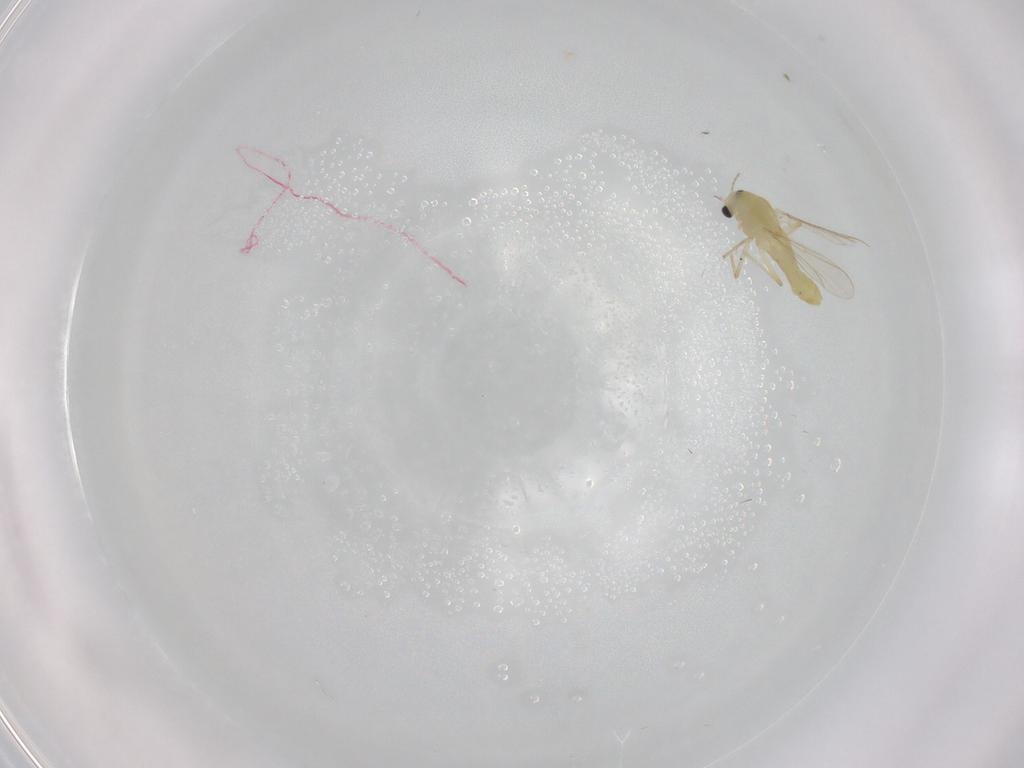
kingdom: Animalia
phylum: Arthropoda
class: Insecta
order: Diptera
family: Chironomidae
